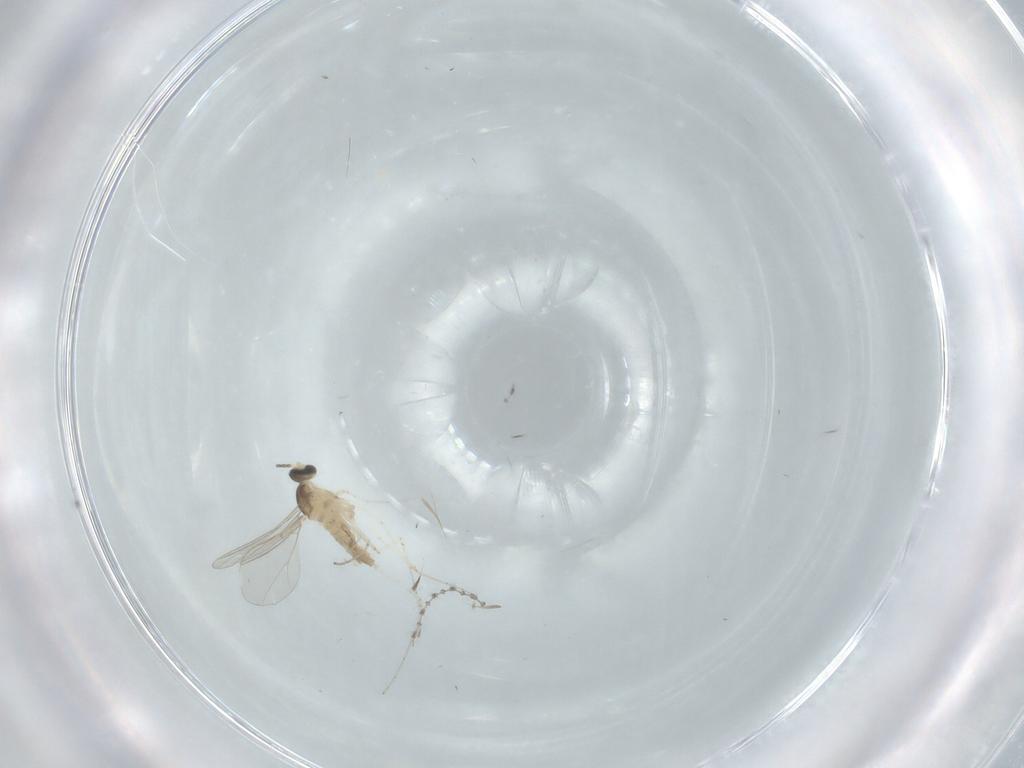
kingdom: Animalia
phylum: Arthropoda
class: Insecta
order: Diptera
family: Cecidomyiidae
